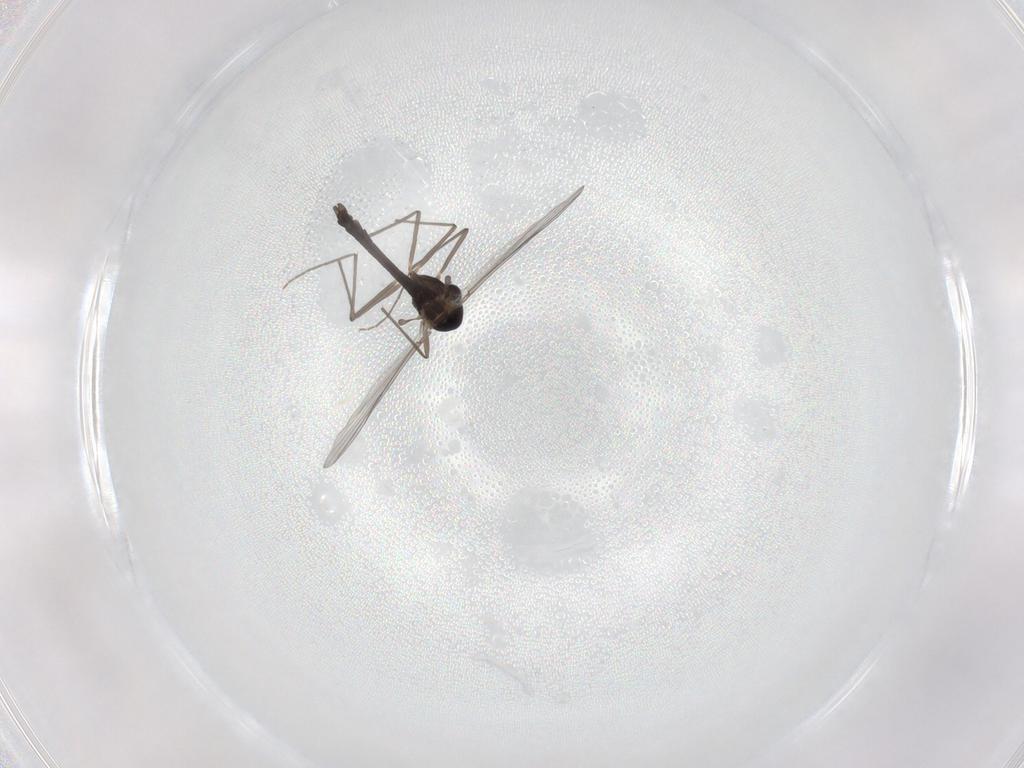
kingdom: Animalia
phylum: Arthropoda
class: Insecta
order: Diptera
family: Chironomidae
